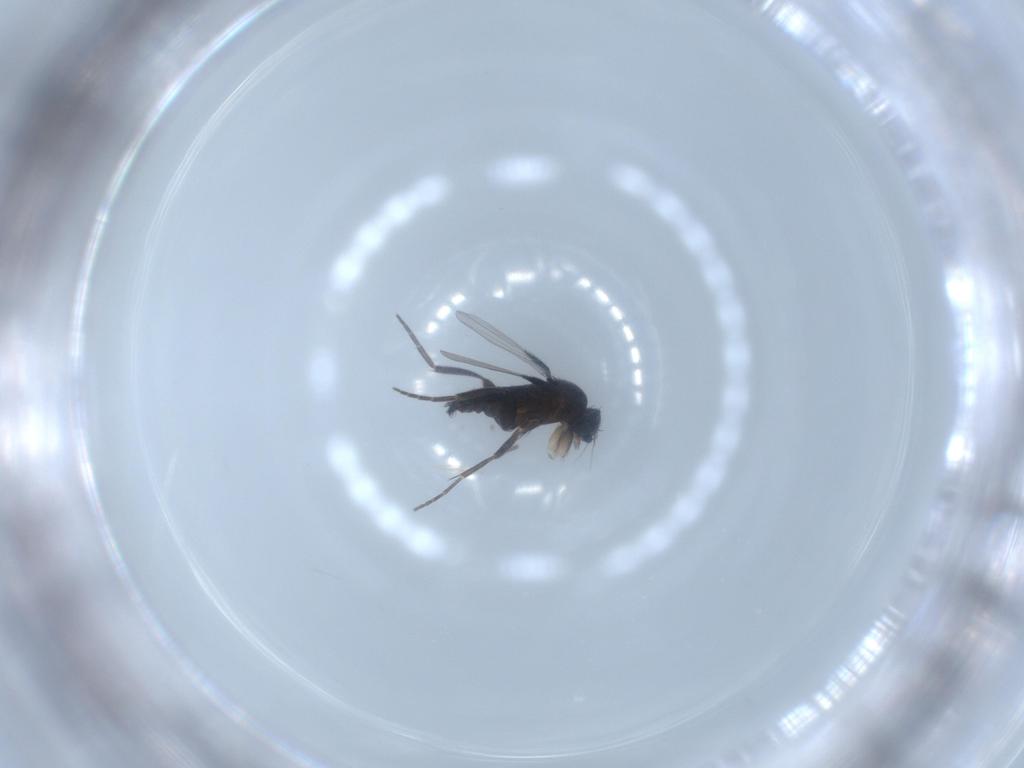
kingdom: Animalia
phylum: Arthropoda
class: Insecta
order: Diptera
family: Phoridae
